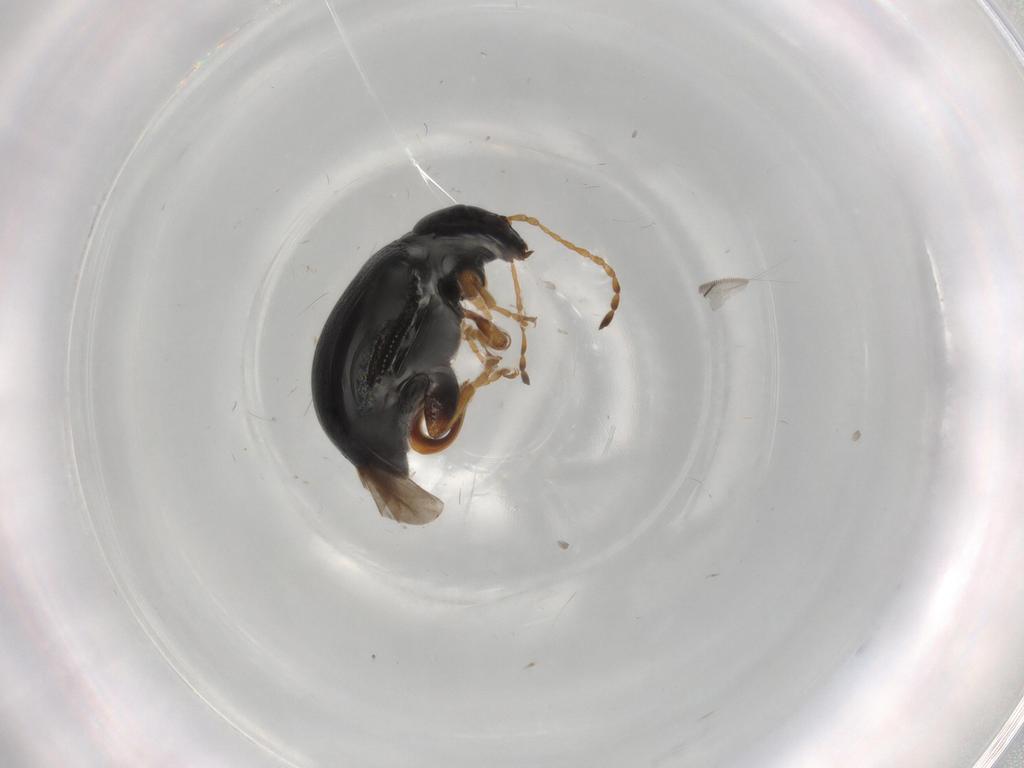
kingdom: Animalia
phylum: Arthropoda
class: Insecta
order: Coleoptera
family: Chrysomelidae
